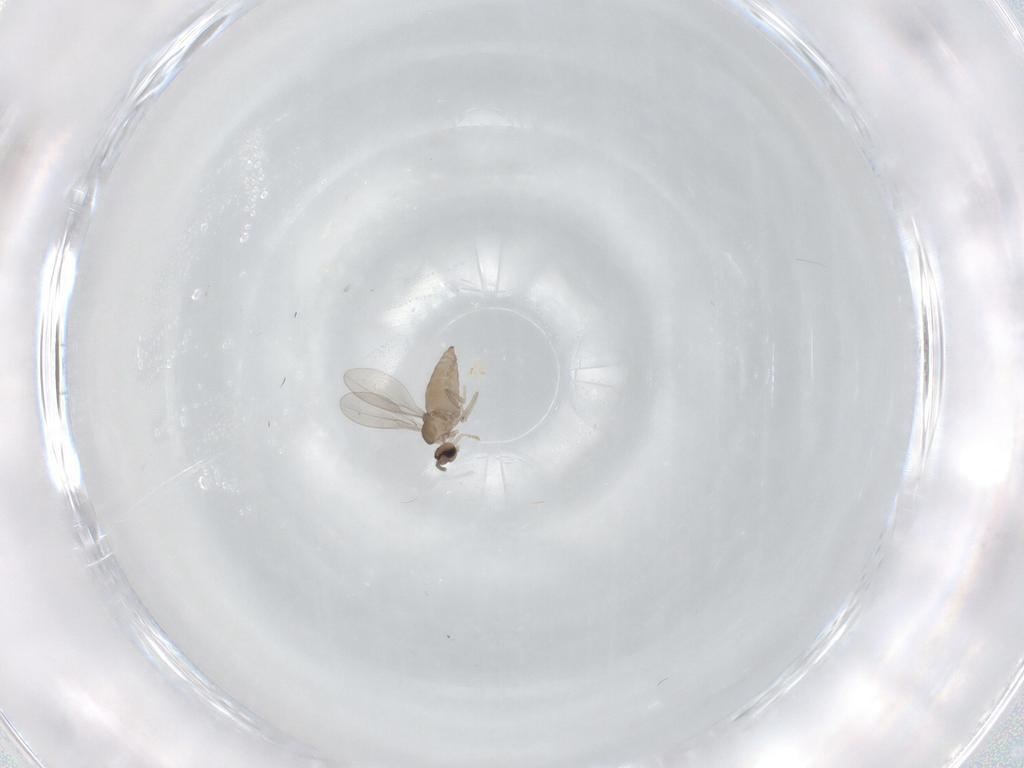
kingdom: Animalia
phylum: Arthropoda
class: Insecta
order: Diptera
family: Cecidomyiidae
